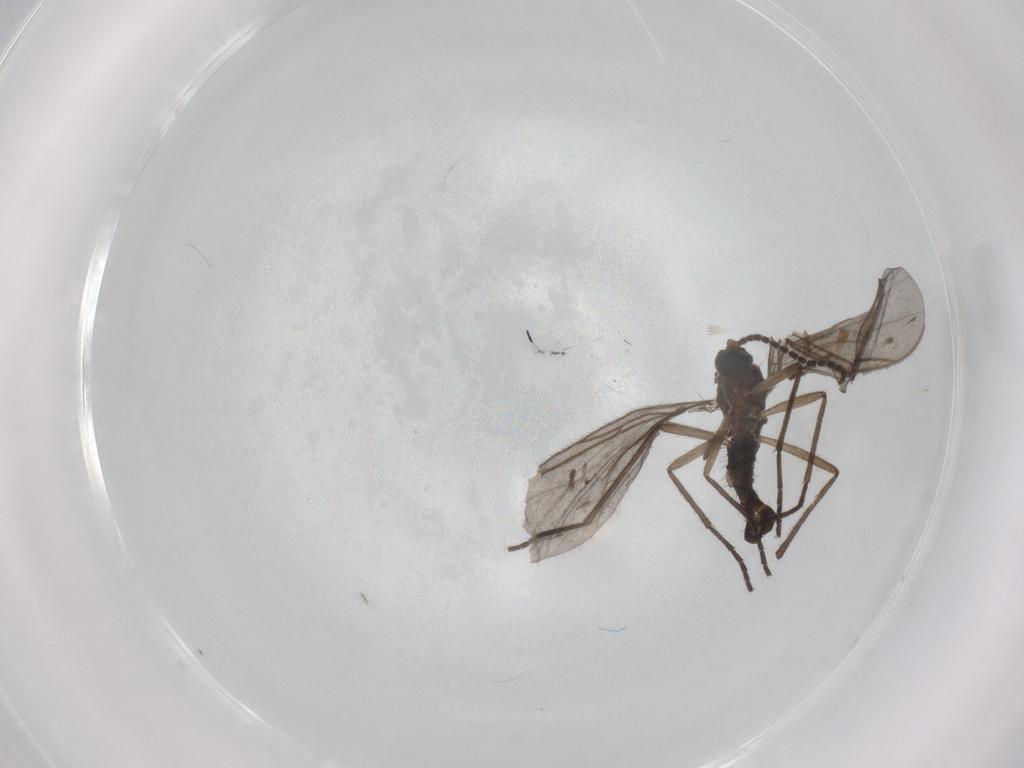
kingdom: Animalia
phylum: Arthropoda
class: Insecta
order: Diptera
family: Sciaridae
